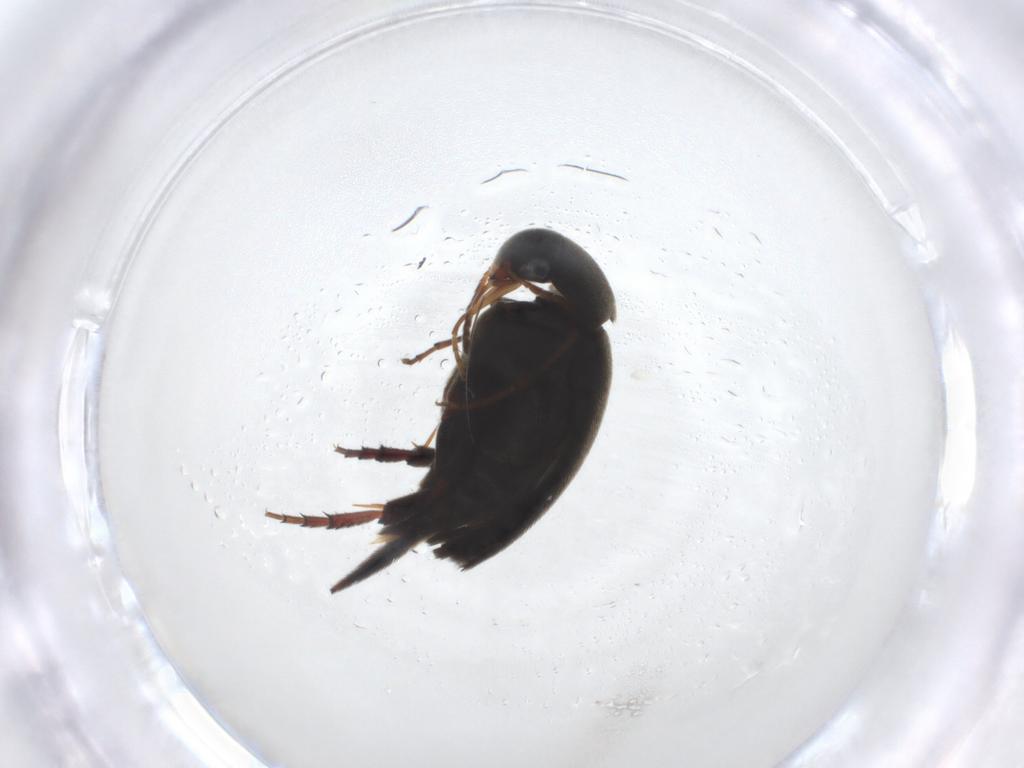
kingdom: Animalia
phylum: Arthropoda
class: Insecta
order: Coleoptera
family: Mordellidae
